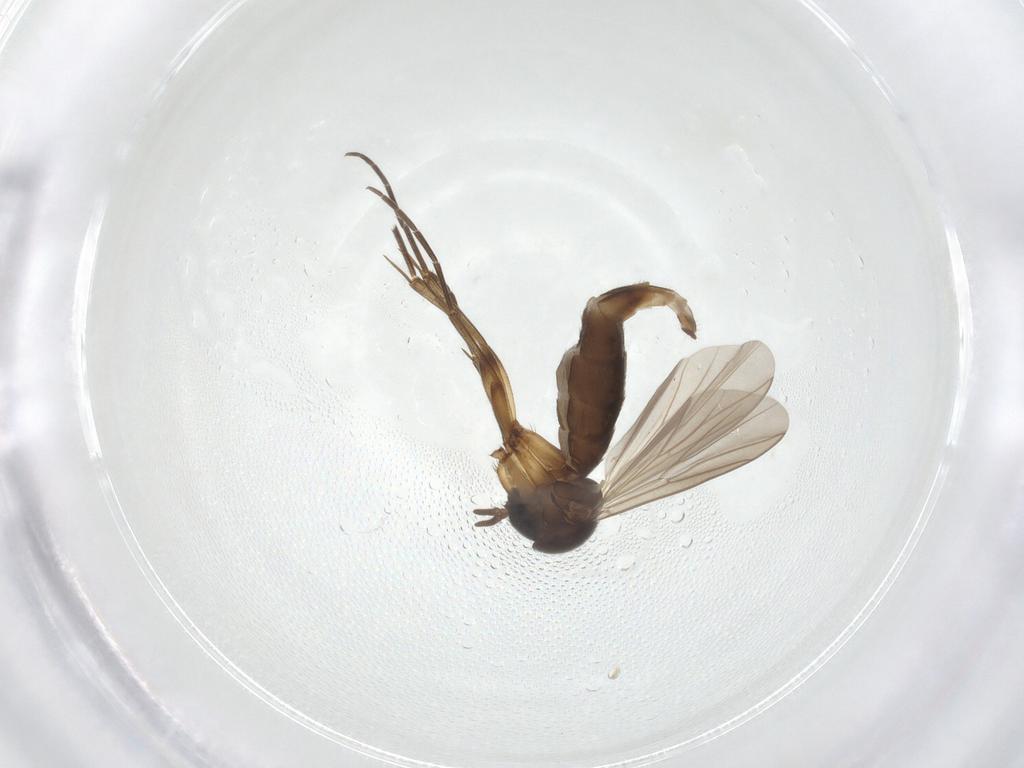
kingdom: Animalia
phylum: Arthropoda
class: Insecta
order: Diptera
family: Mycetophilidae
